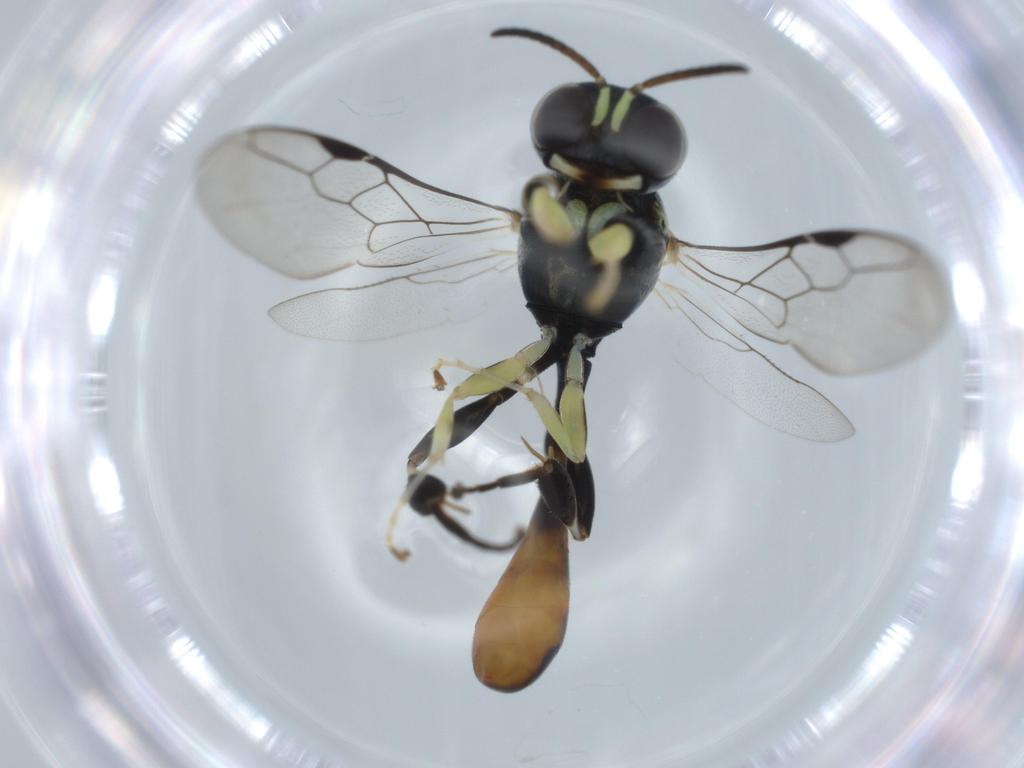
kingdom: Animalia
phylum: Arthropoda
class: Insecta
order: Hymenoptera
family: Crabronidae
